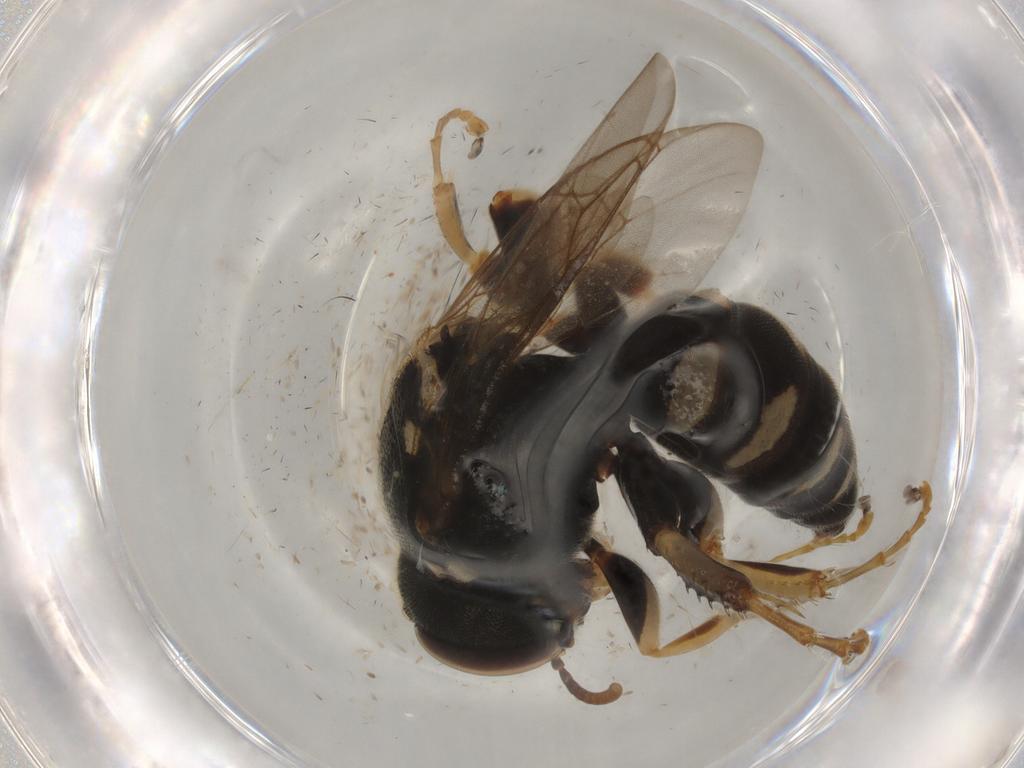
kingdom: Animalia
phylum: Arthropoda
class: Insecta
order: Hymenoptera
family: Crabronidae
